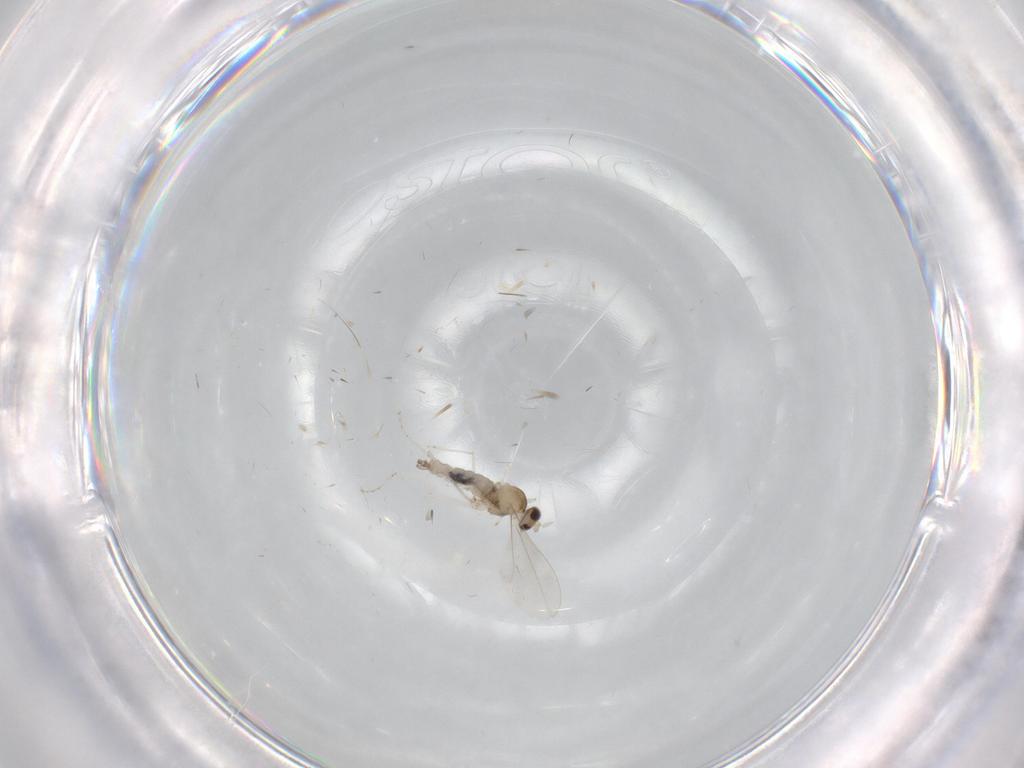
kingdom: Animalia
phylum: Arthropoda
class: Insecta
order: Diptera
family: Cecidomyiidae
